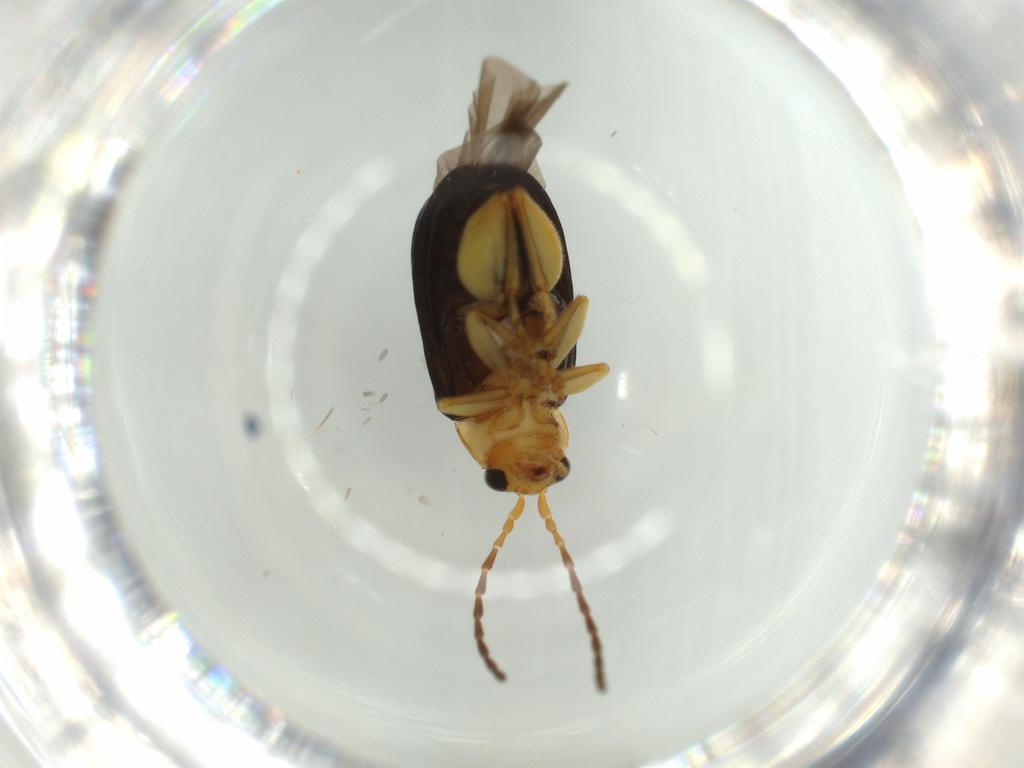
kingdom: Animalia
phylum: Arthropoda
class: Insecta
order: Coleoptera
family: Chrysomelidae
